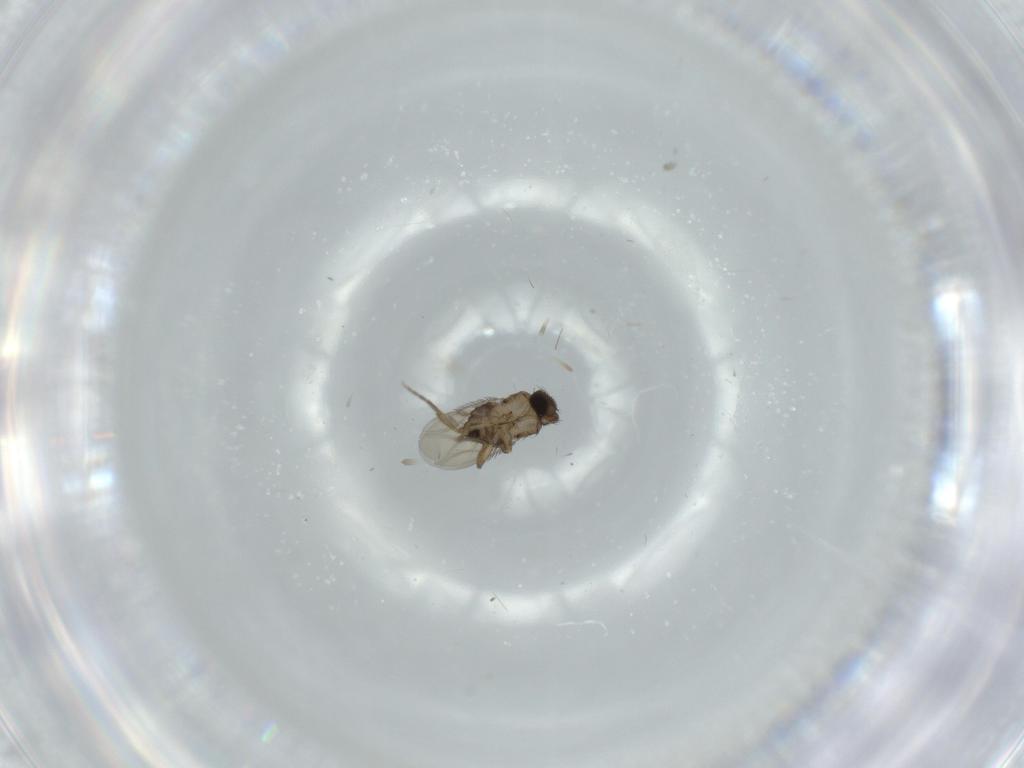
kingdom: Animalia
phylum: Arthropoda
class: Insecta
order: Diptera
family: Phoridae
